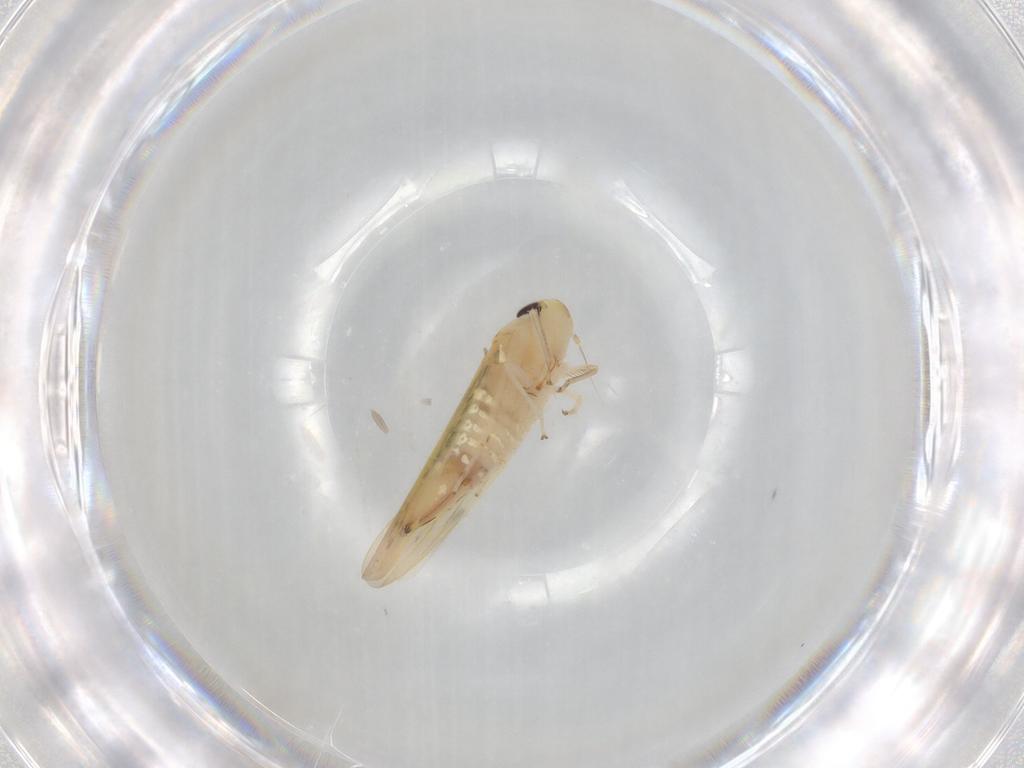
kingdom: Animalia
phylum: Arthropoda
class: Insecta
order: Hemiptera
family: Cicadellidae
